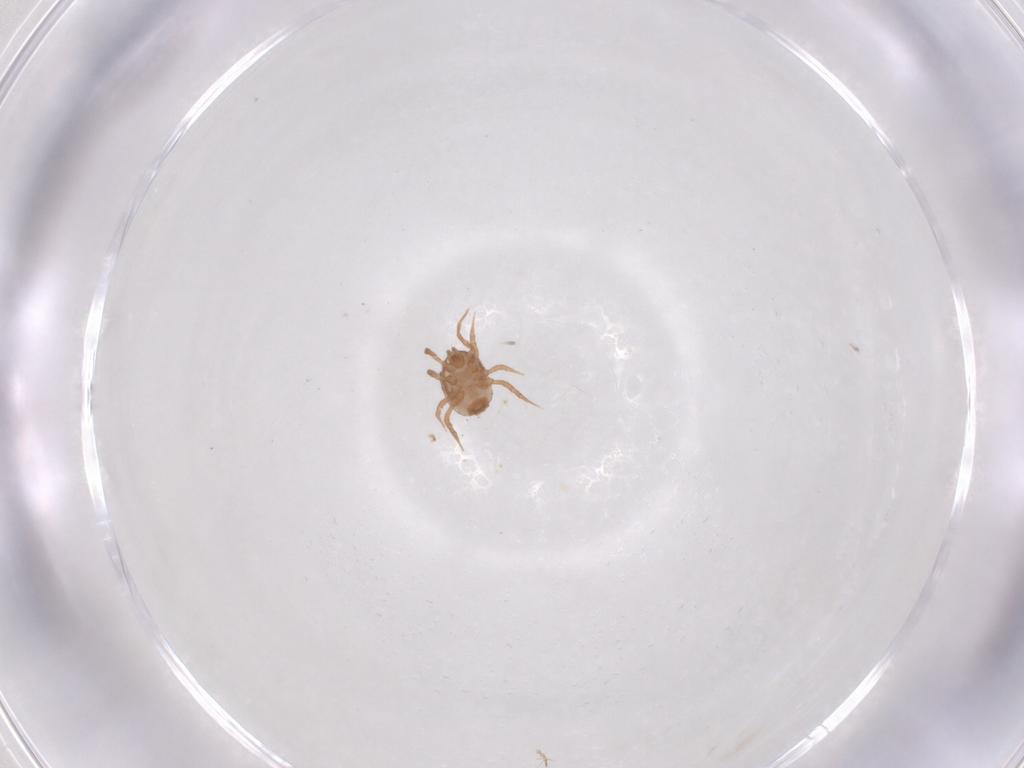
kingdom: Animalia
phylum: Arthropoda
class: Arachnida
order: Mesostigmata
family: Blattisociidae
